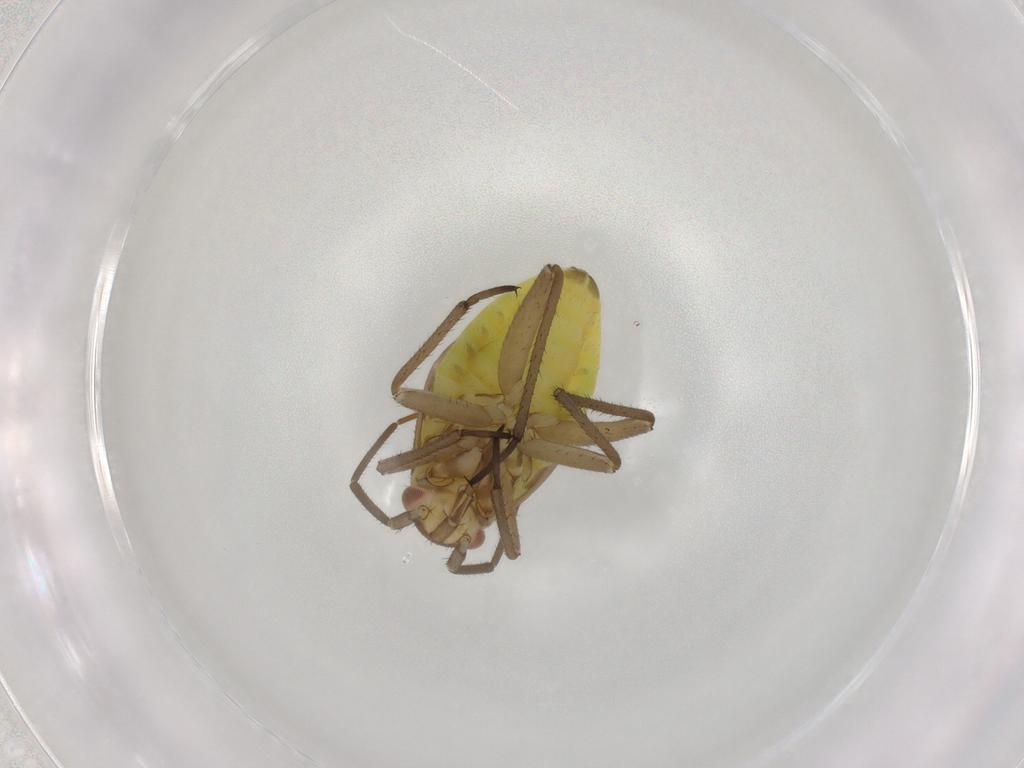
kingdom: Animalia
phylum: Arthropoda
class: Insecta
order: Hemiptera
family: Miridae
